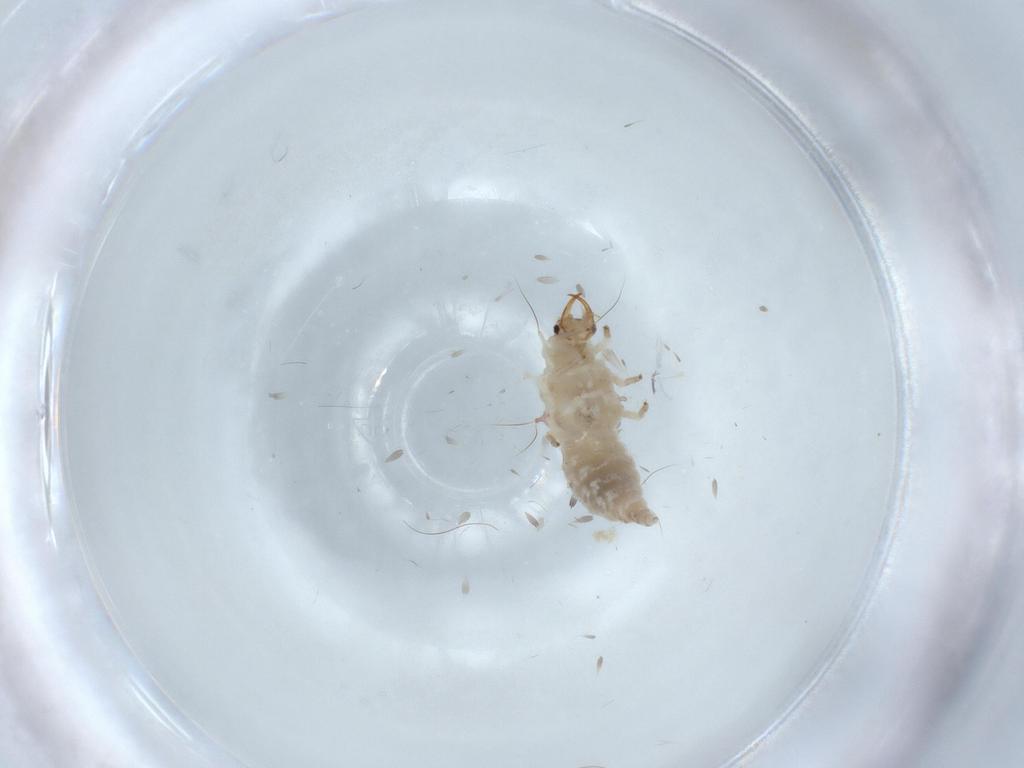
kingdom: Animalia
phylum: Arthropoda
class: Insecta
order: Neuroptera
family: Chrysopidae
